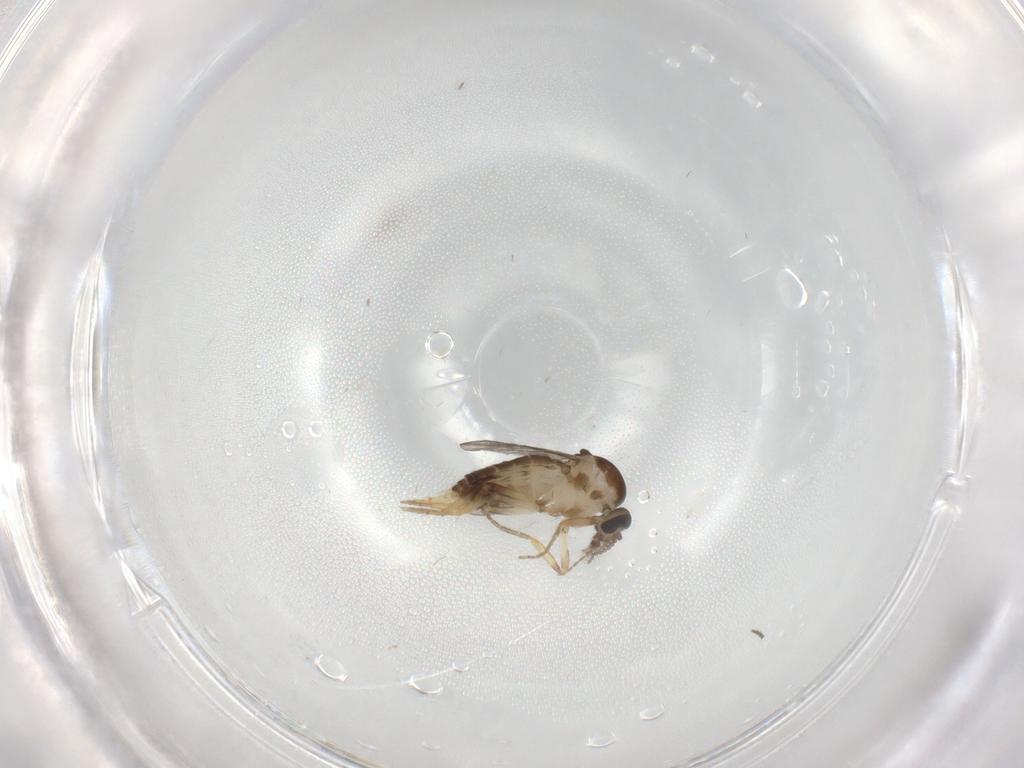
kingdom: Animalia
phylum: Arthropoda
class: Insecta
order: Diptera
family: Ceratopogonidae
